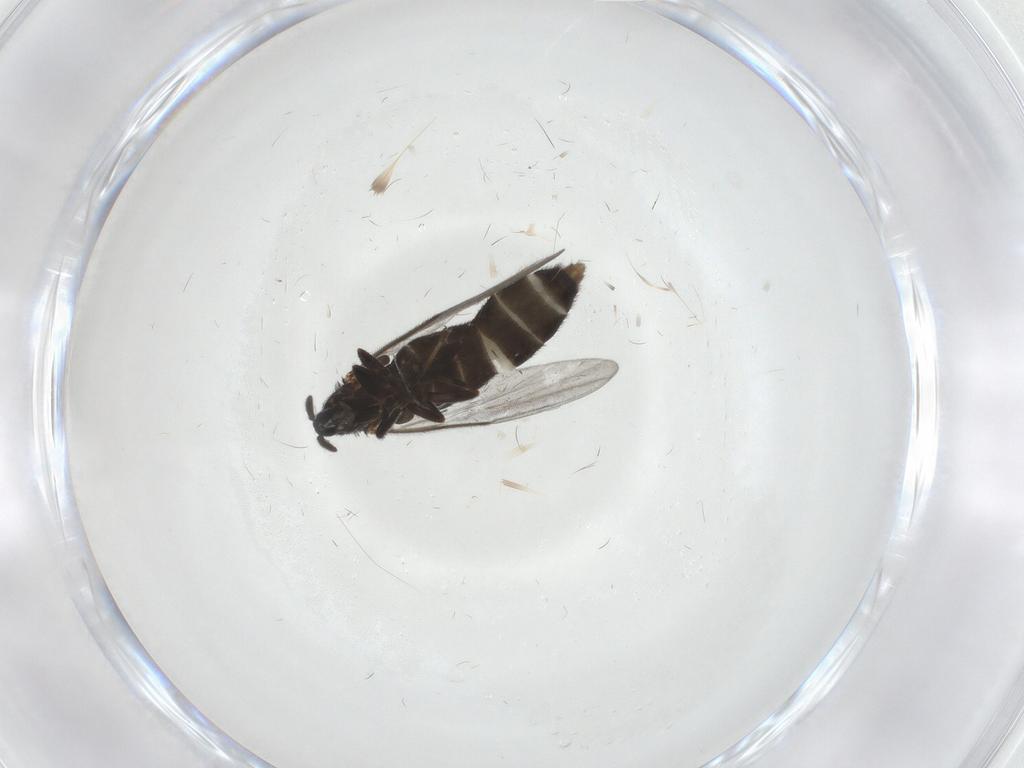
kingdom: Animalia
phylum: Arthropoda
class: Insecta
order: Diptera
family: Scatopsidae
